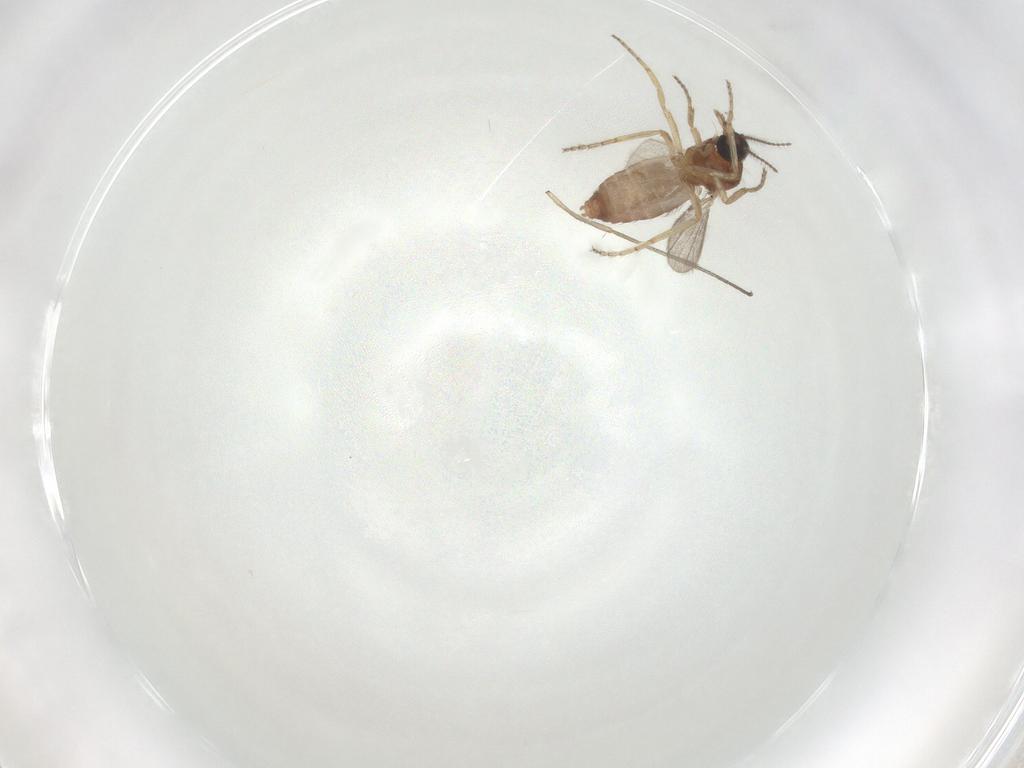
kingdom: Animalia
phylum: Arthropoda
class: Insecta
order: Diptera
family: Ceratopogonidae
